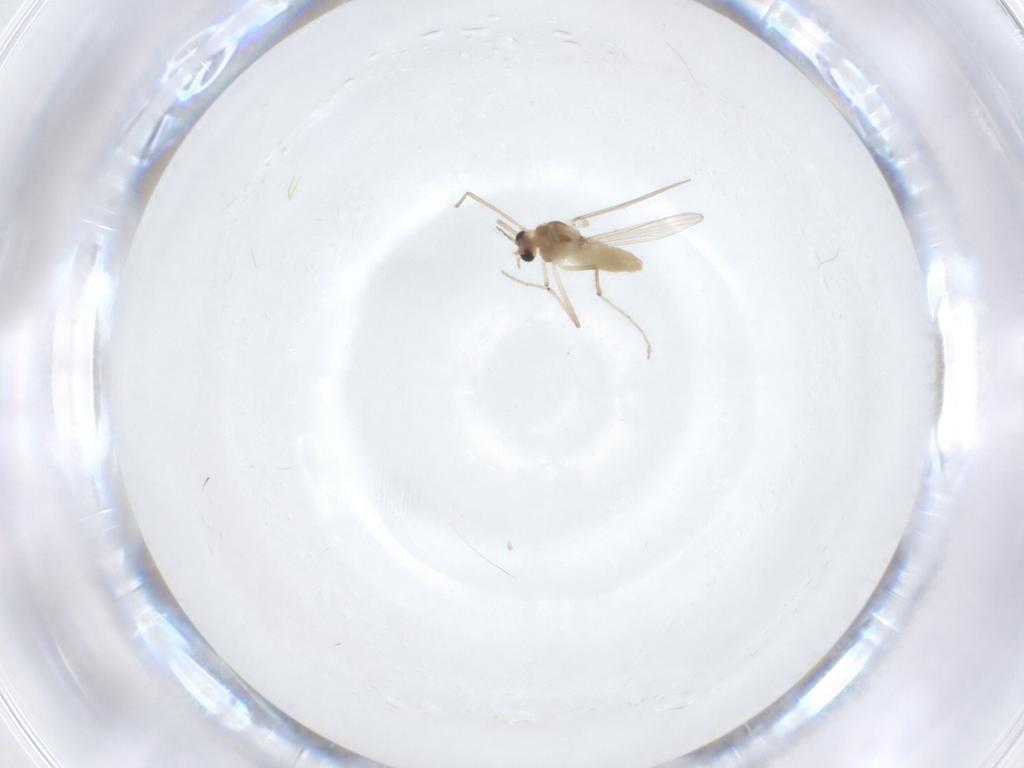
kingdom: Animalia
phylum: Arthropoda
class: Insecta
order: Diptera
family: Chironomidae
